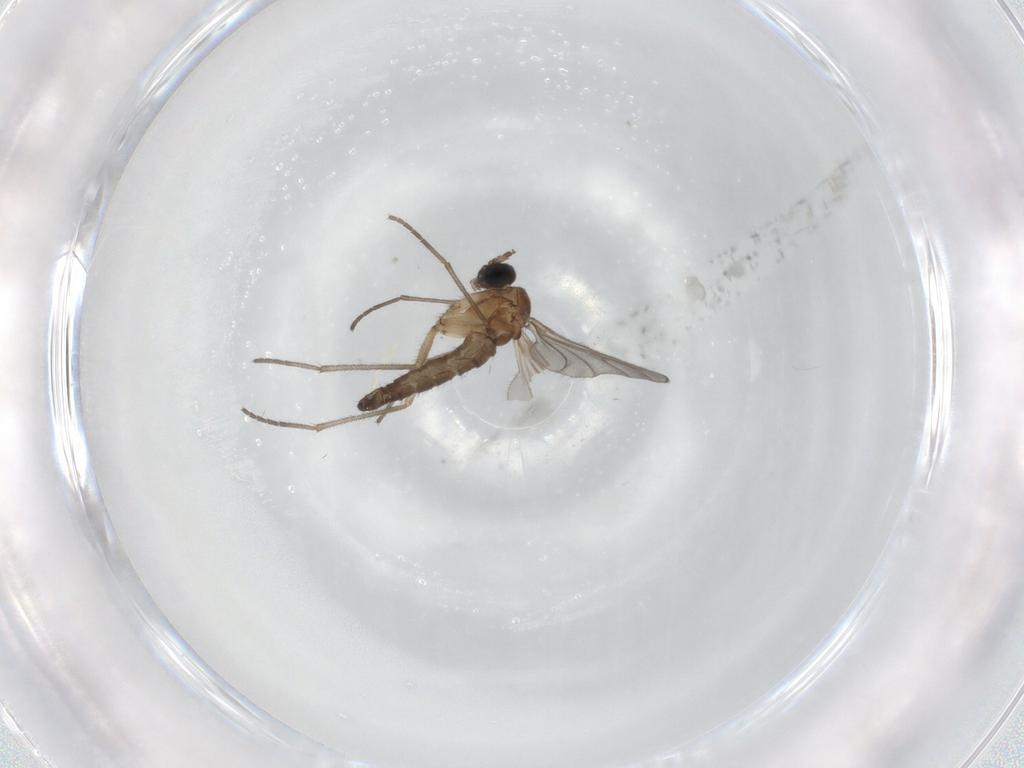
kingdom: Animalia
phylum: Arthropoda
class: Insecta
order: Diptera
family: Sciaridae
